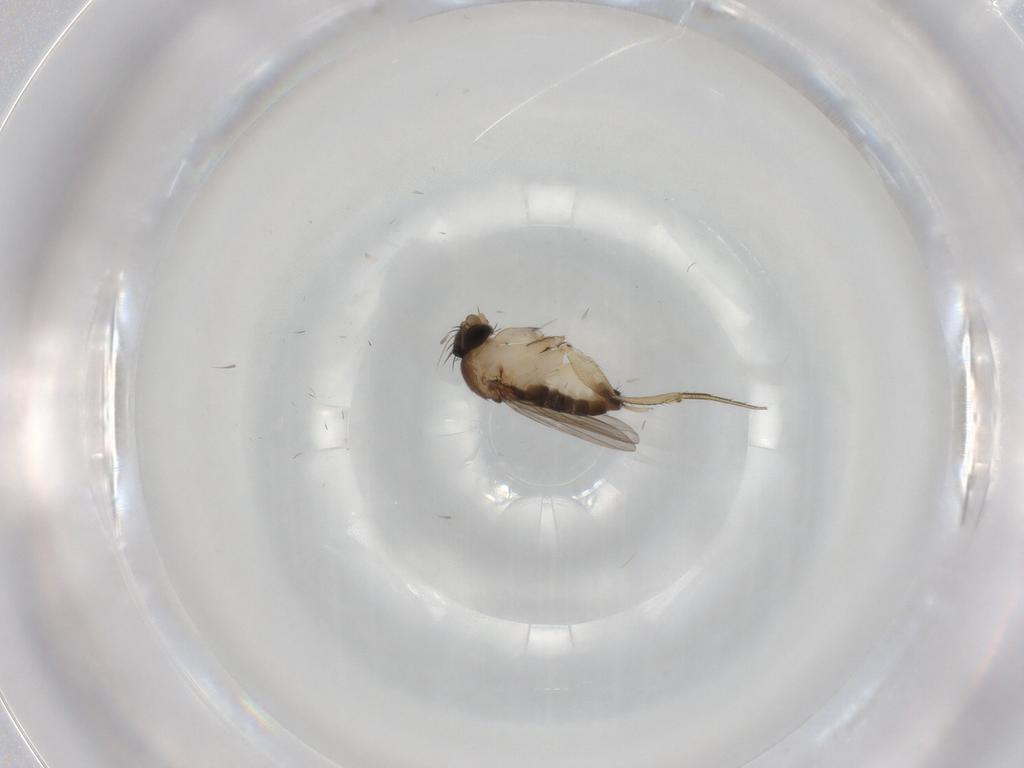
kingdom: Animalia
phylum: Arthropoda
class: Insecta
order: Diptera
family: Phoridae
